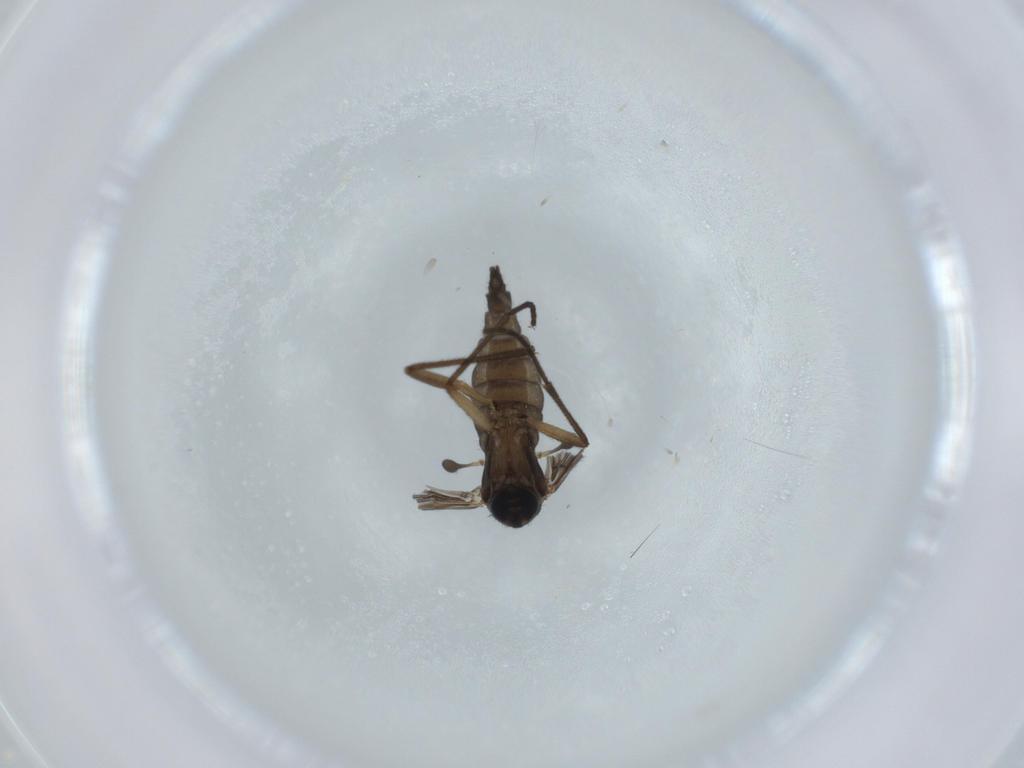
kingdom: Animalia
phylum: Arthropoda
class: Insecta
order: Diptera
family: Sciaridae
